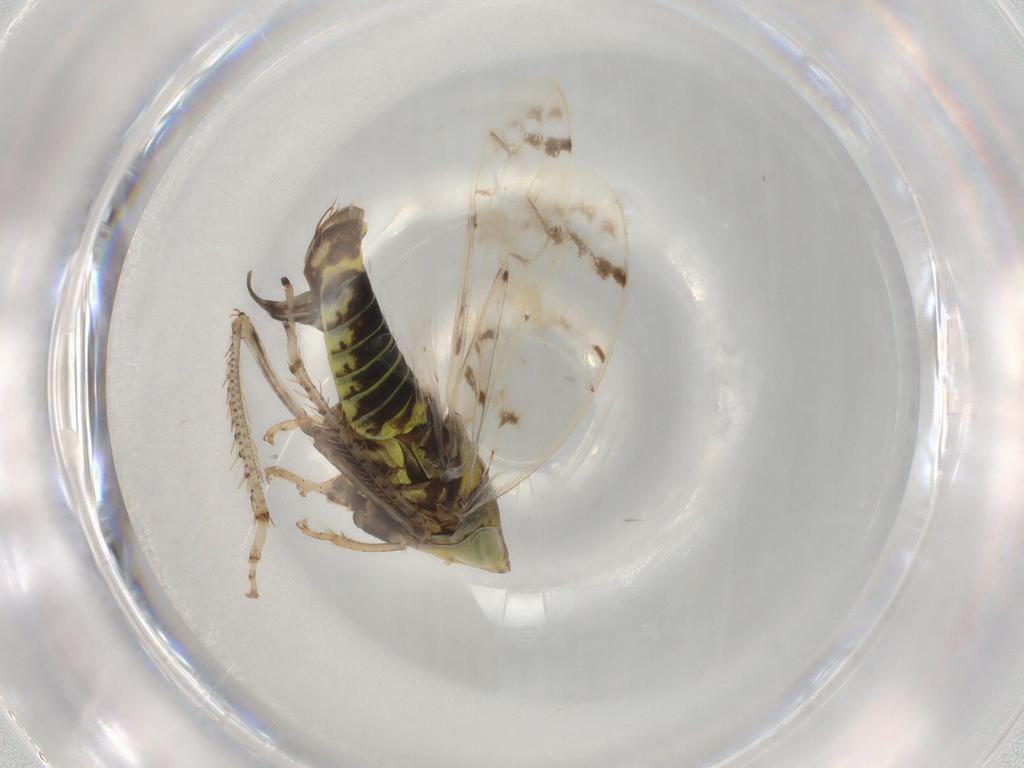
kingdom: Animalia
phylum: Arthropoda
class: Insecta
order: Hemiptera
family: Cicadellidae
